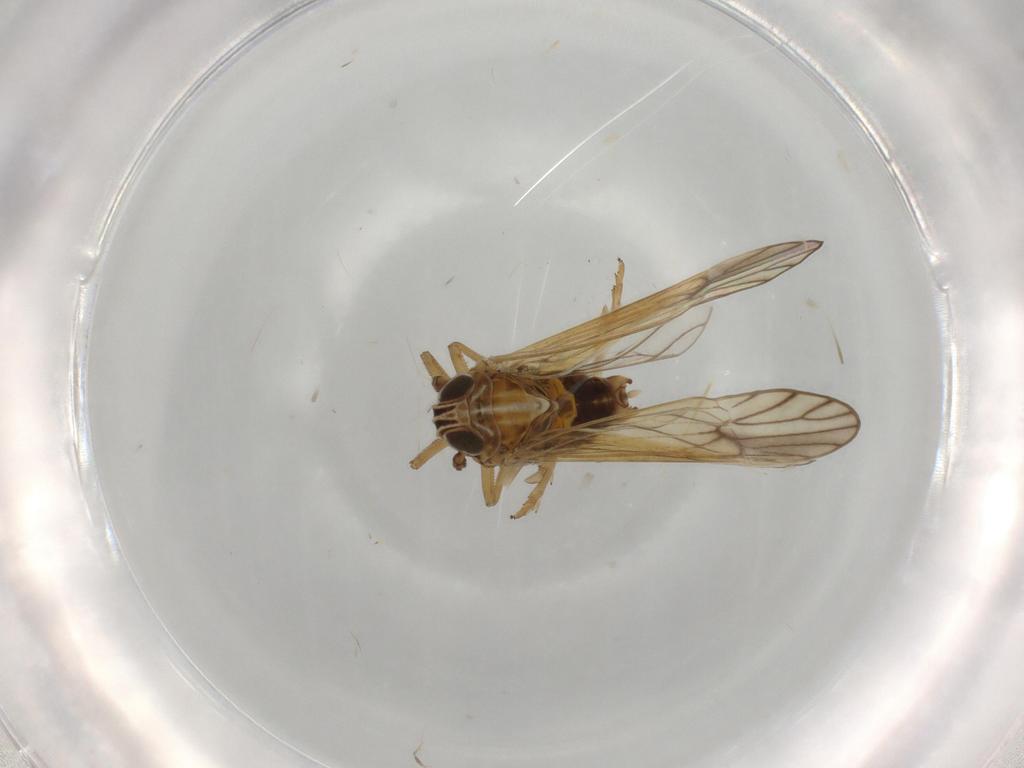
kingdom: Animalia
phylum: Arthropoda
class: Insecta
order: Hemiptera
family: Delphacidae
